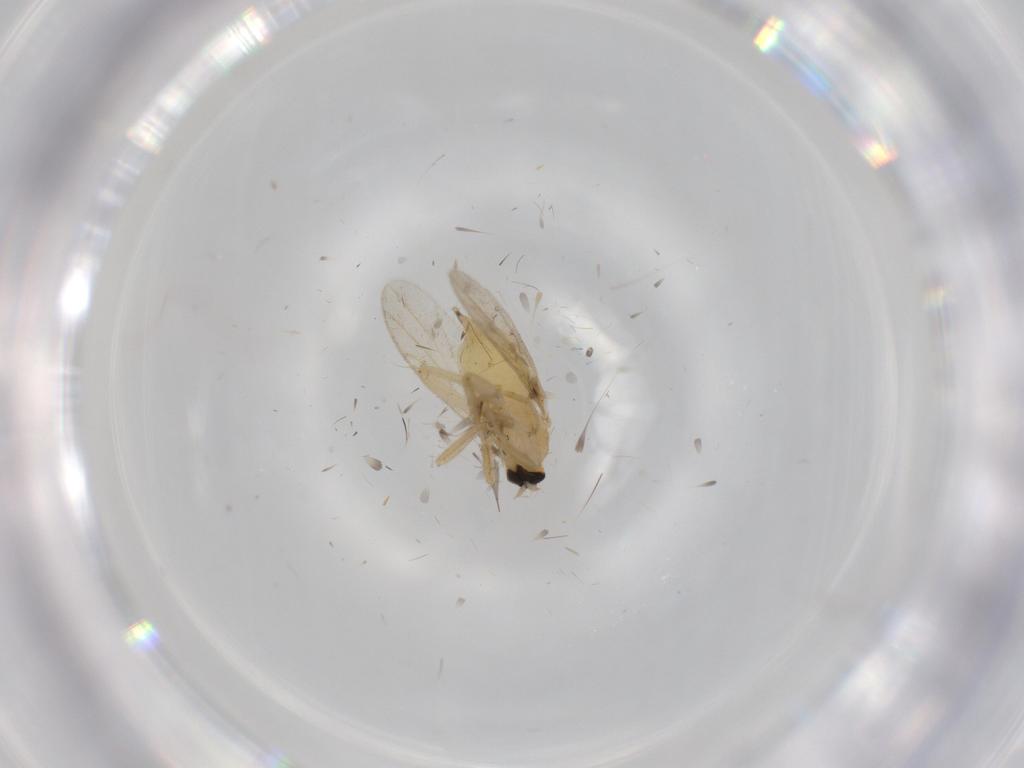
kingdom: Animalia
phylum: Arthropoda
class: Insecta
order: Diptera
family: Hybotidae
